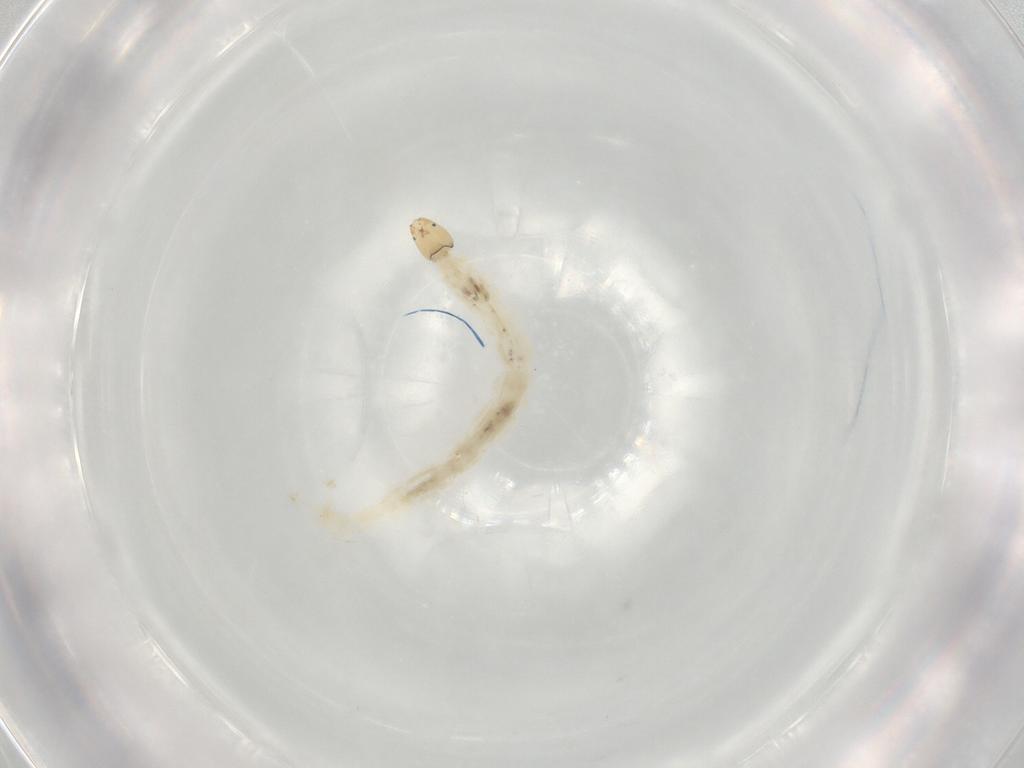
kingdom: Animalia
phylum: Arthropoda
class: Insecta
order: Diptera
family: Chironomidae
